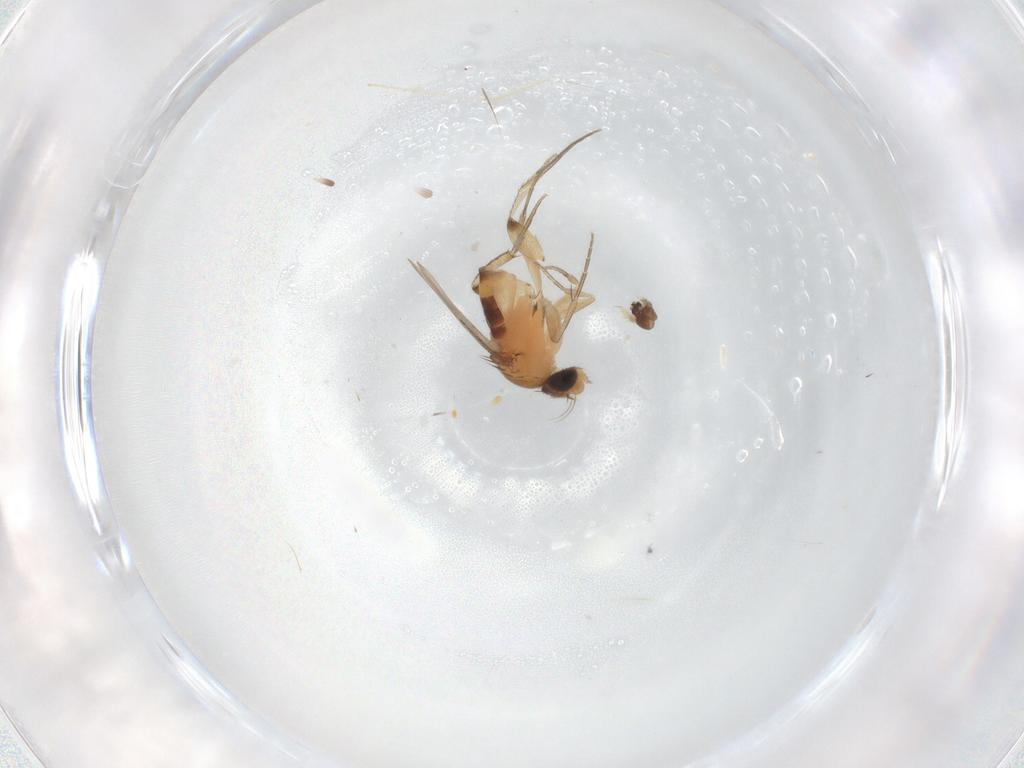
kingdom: Animalia
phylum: Arthropoda
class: Insecta
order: Diptera
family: Phoridae
